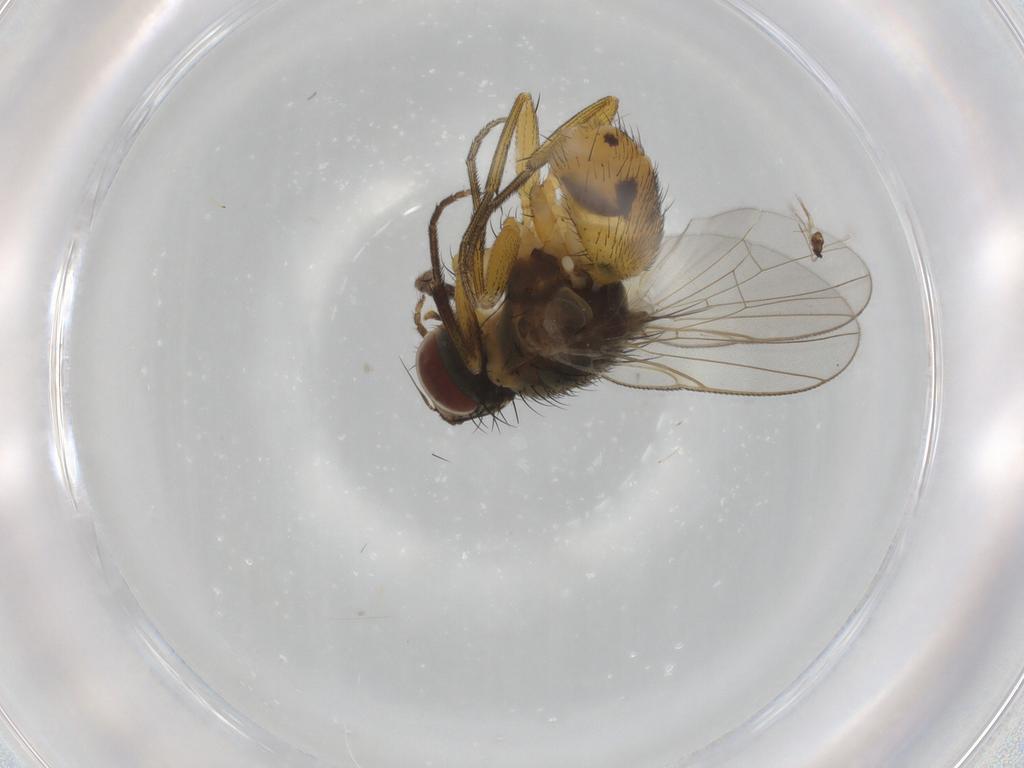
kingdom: Animalia
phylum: Arthropoda
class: Insecta
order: Diptera
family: Muscidae
